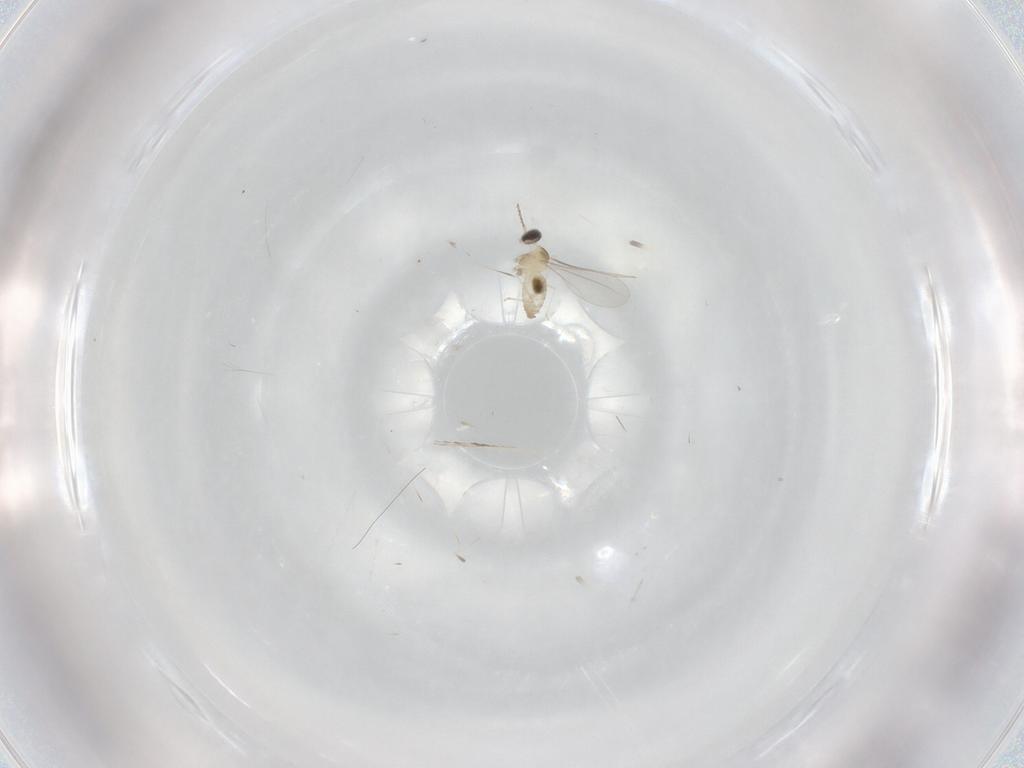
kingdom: Animalia
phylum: Arthropoda
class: Insecta
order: Diptera
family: Cecidomyiidae
